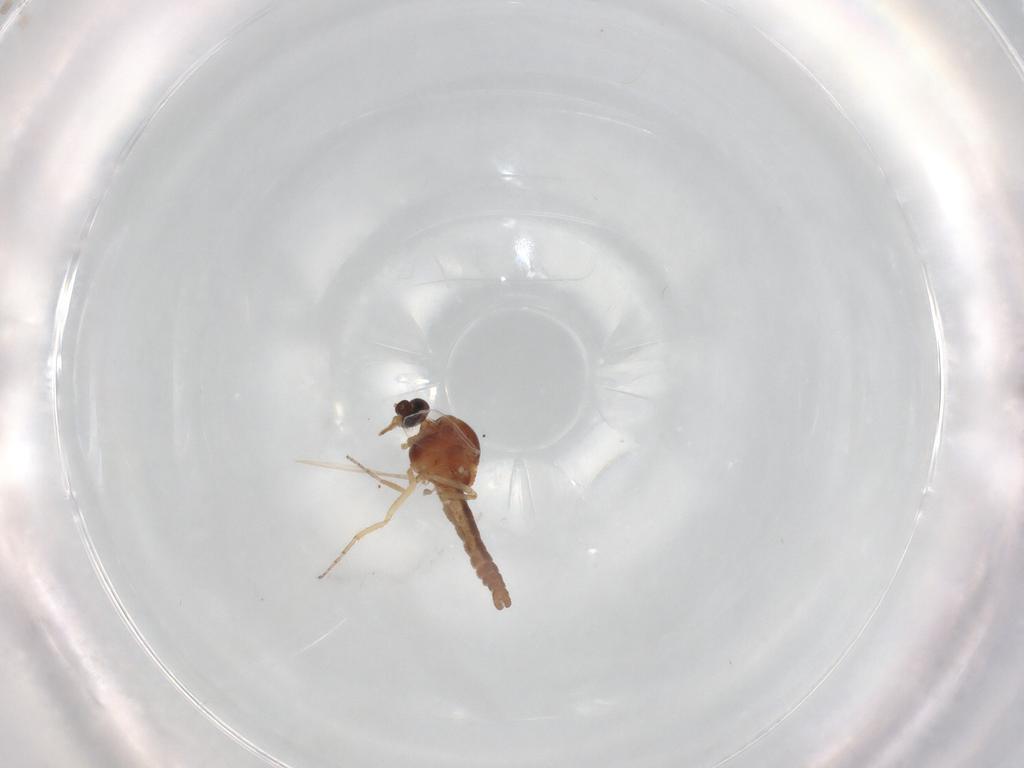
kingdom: Animalia
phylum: Arthropoda
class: Insecta
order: Diptera
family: Ceratopogonidae
